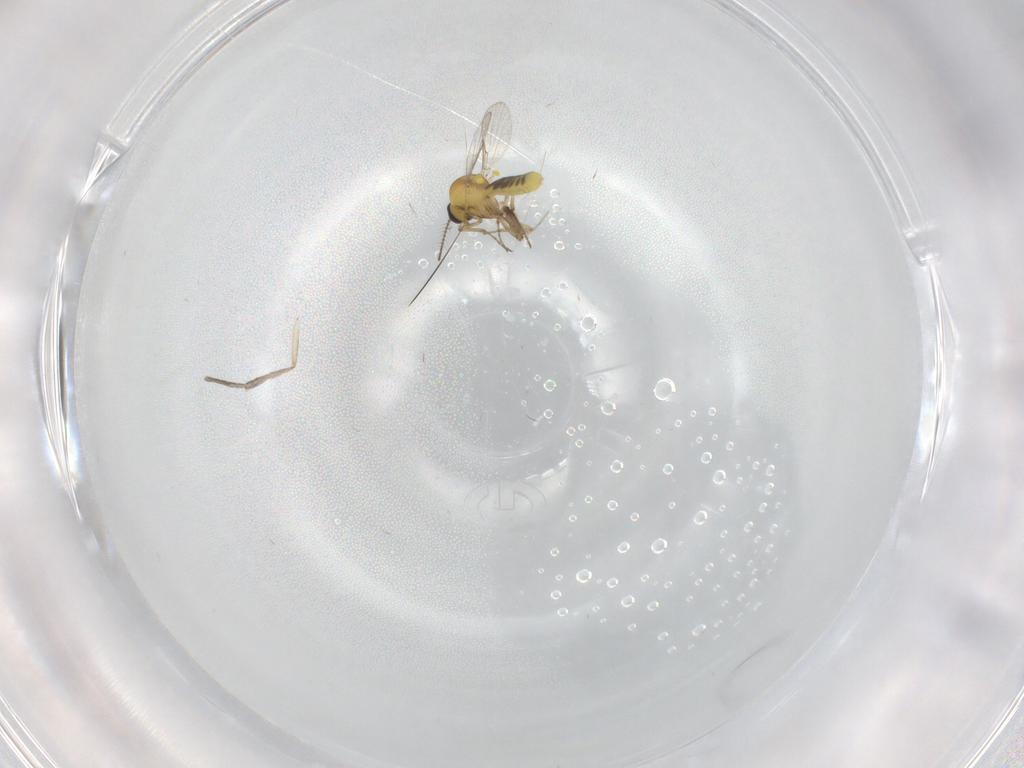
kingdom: Animalia
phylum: Arthropoda
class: Insecta
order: Diptera
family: Cecidomyiidae
